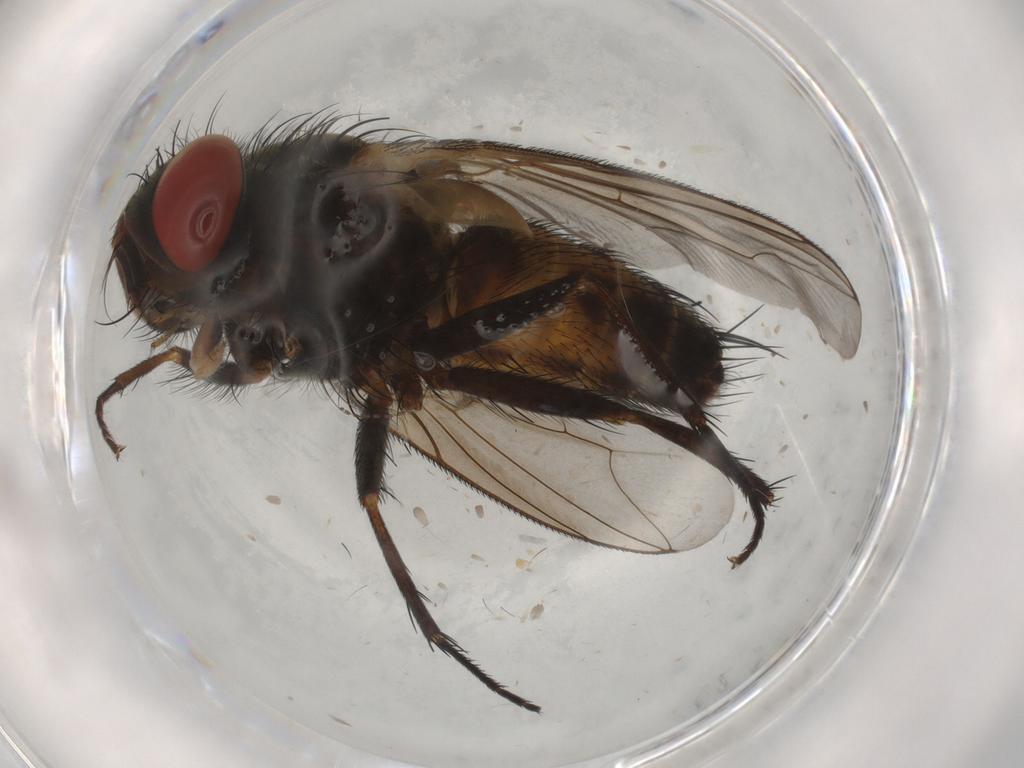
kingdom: Animalia
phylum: Arthropoda
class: Insecta
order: Diptera
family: Sarcophagidae
